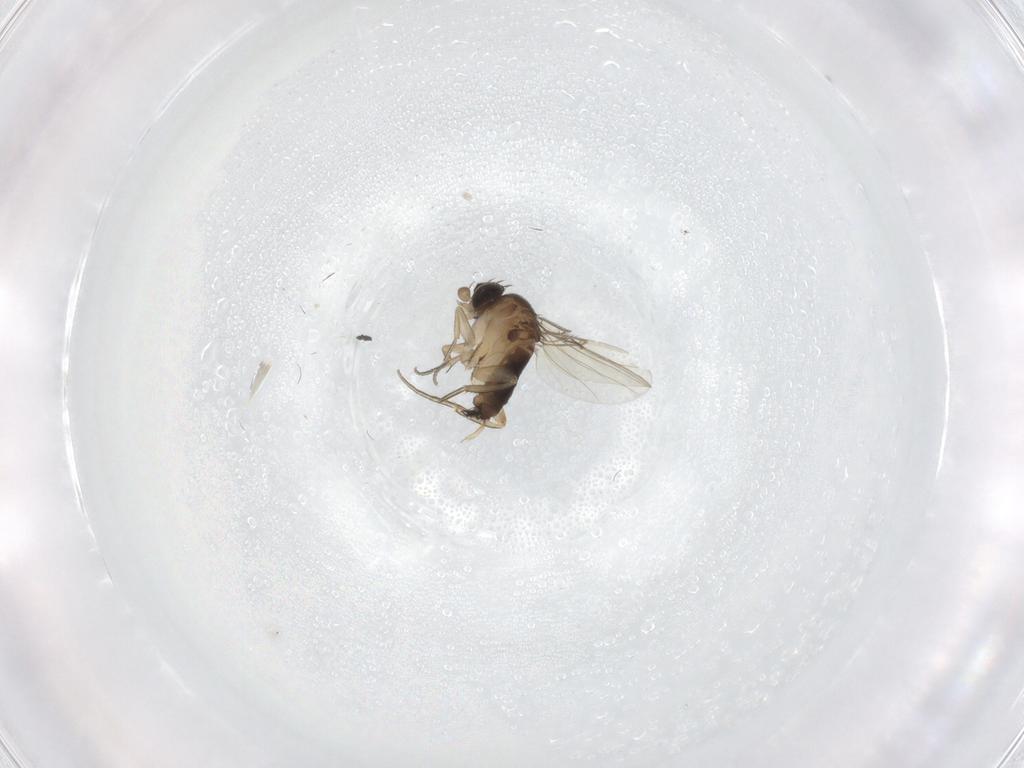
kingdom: Animalia
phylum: Arthropoda
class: Insecta
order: Diptera
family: Phoridae
